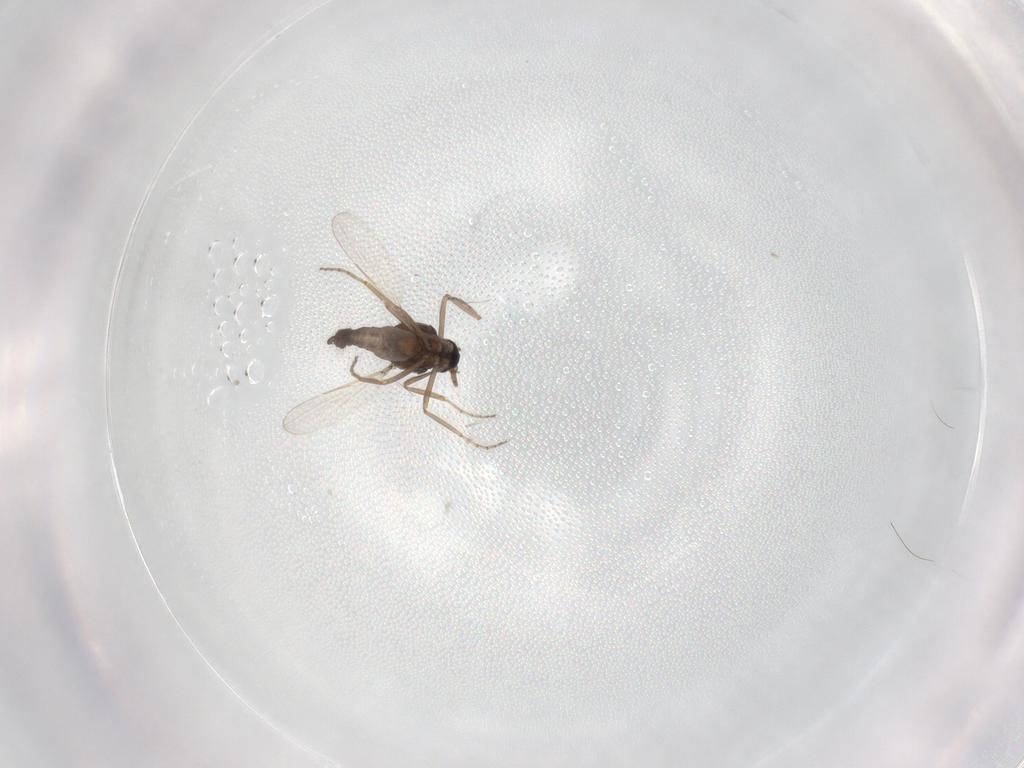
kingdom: Animalia
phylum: Arthropoda
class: Insecta
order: Diptera
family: Ceratopogonidae
